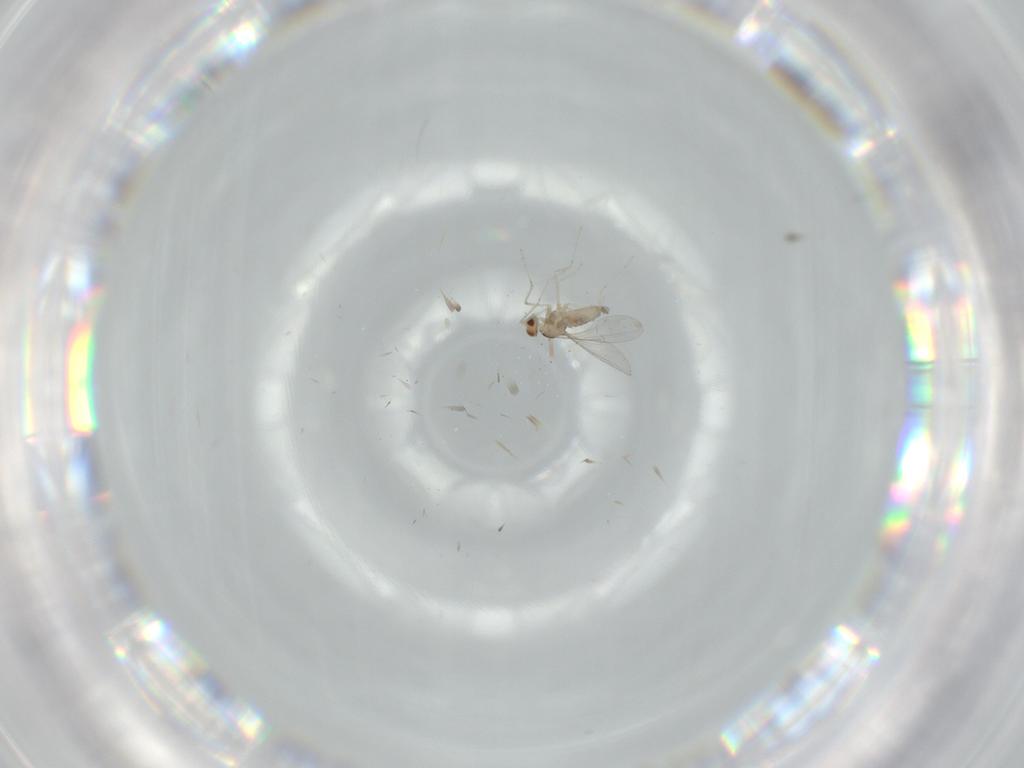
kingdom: Animalia
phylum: Arthropoda
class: Insecta
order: Diptera
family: Cecidomyiidae
